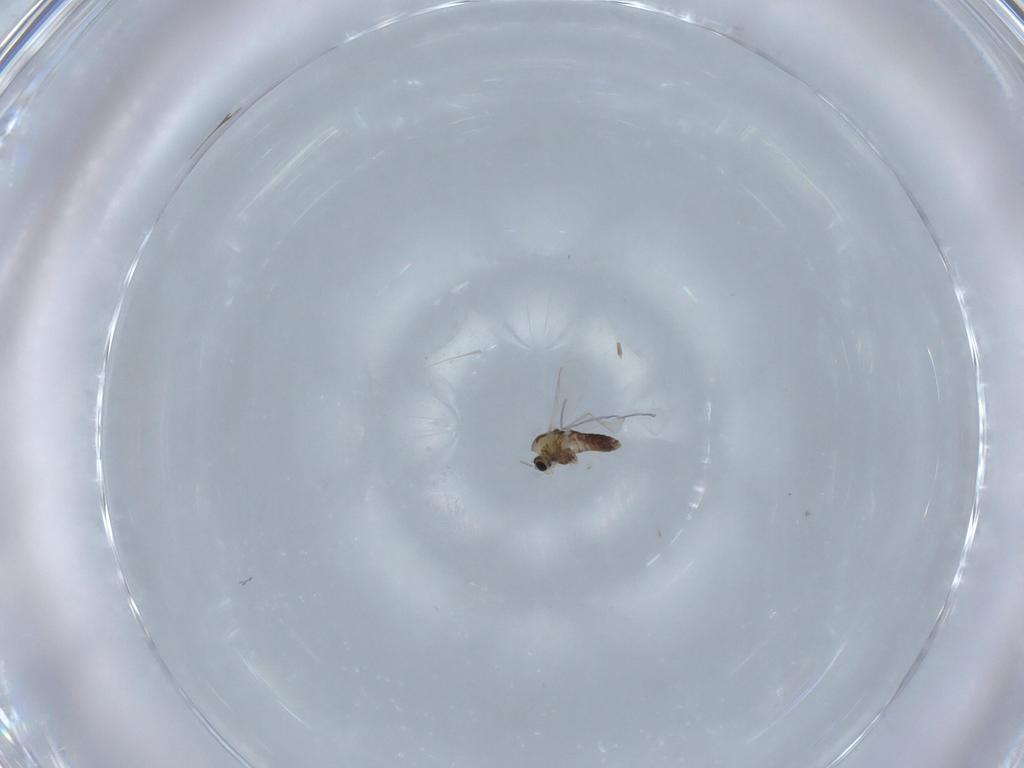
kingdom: Animalia
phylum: Arthropoda
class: Insecta
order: Diptera
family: Chironomidae
